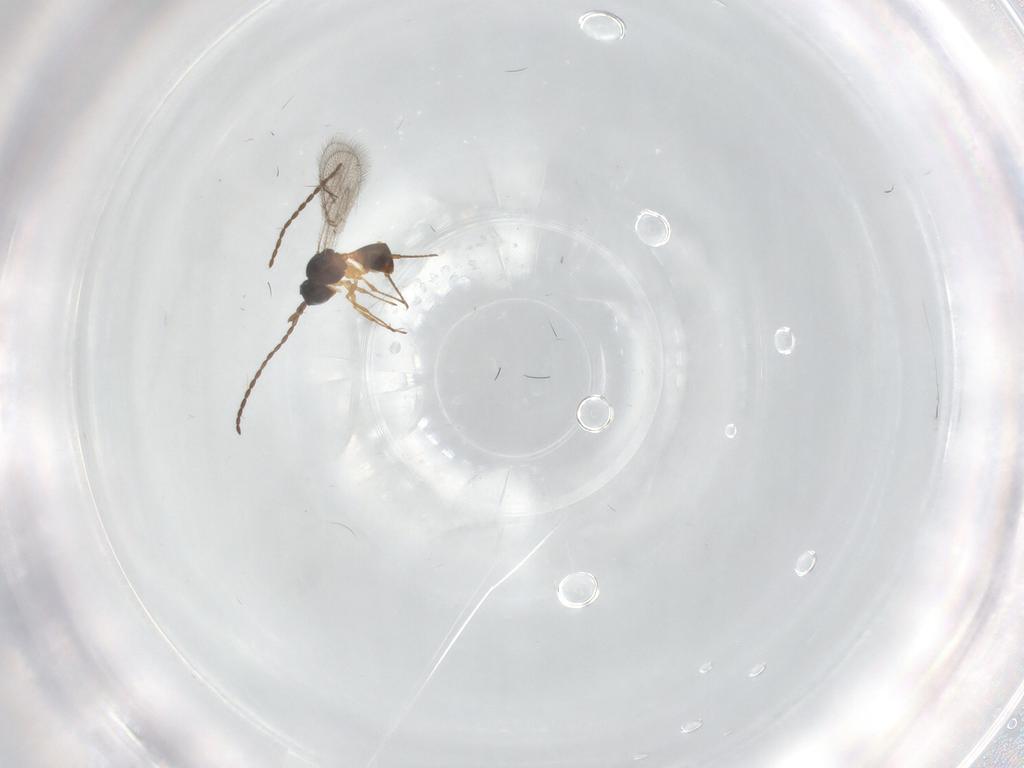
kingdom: Animalia
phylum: Arthropoda
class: Insecta
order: Hymenoptera
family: Figitidae
